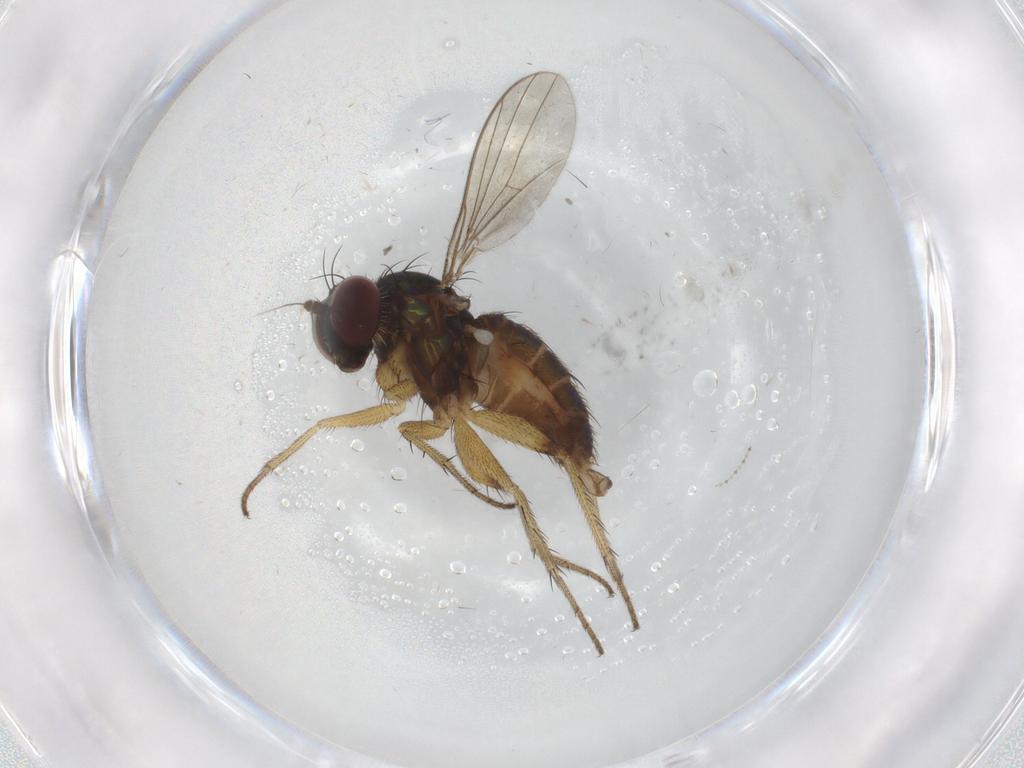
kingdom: Animalia
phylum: Arthropoda
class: Insecta
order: Diptera
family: Dolichopodidae
